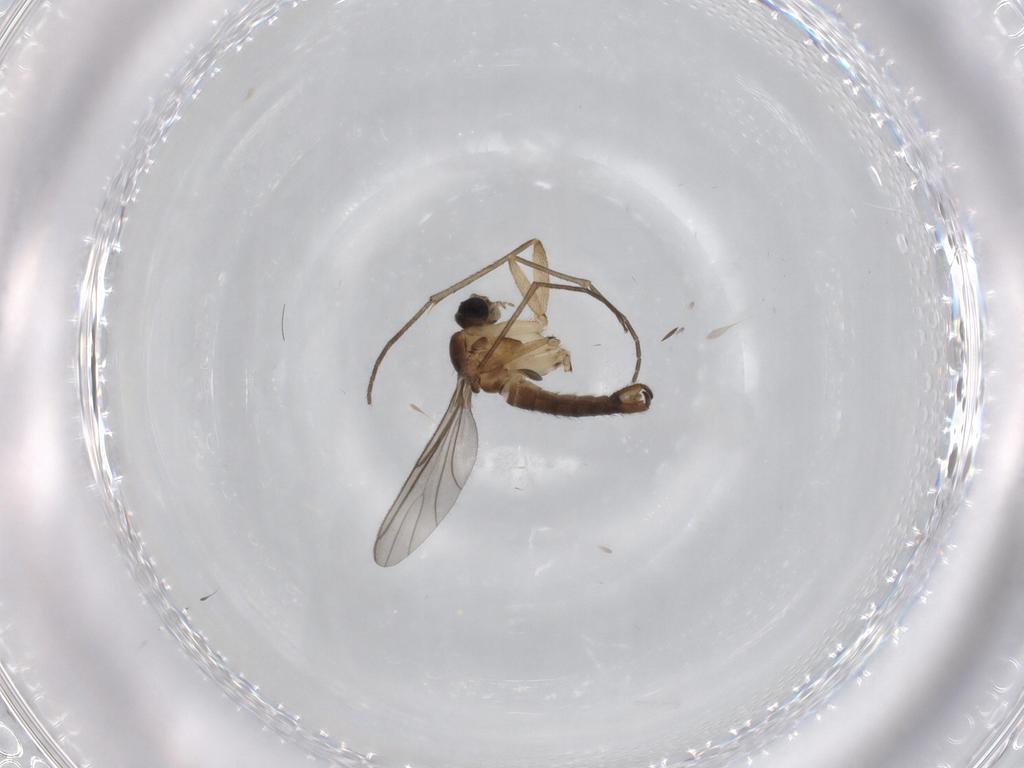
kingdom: Animalia
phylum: Arthropoda
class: Insecta
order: Diptera
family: Sciaridae
